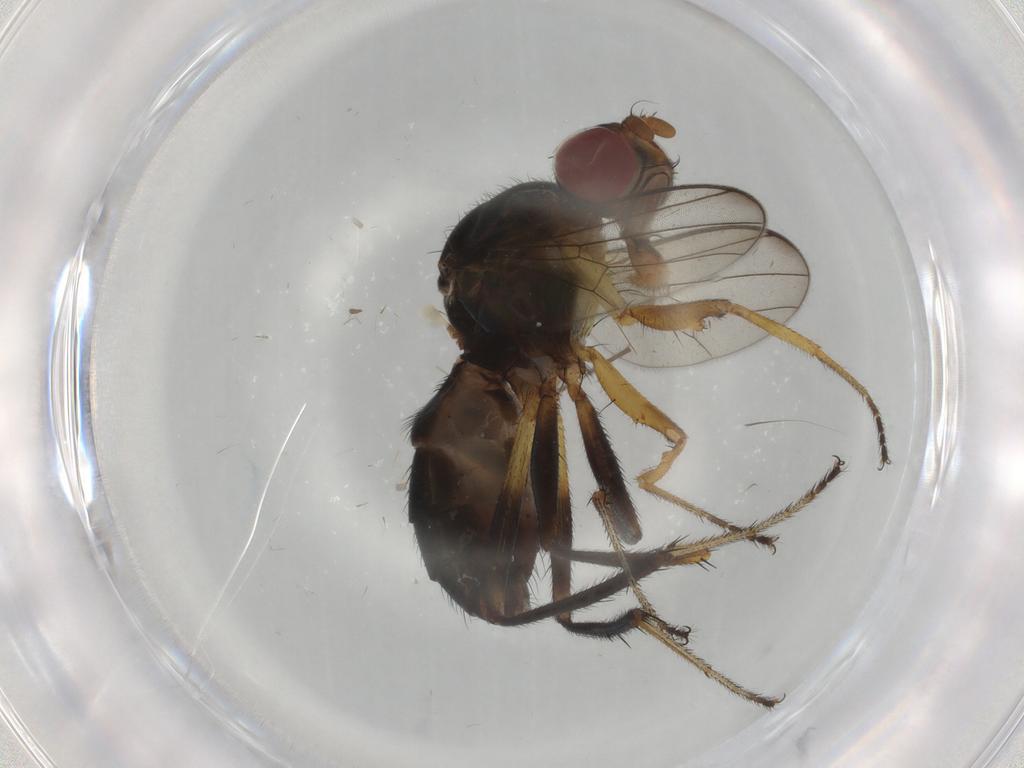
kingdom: Animalia
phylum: Arthropoda
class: Insecta
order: Diptera
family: Sepsidae
